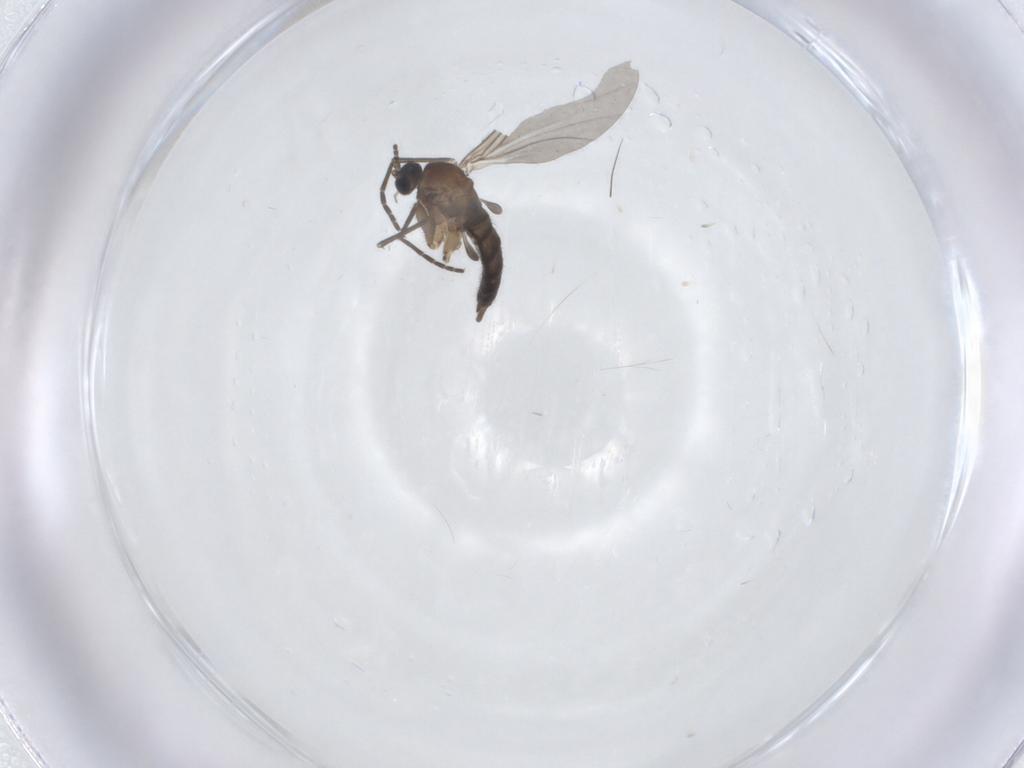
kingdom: Animalia
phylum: Arthropoda
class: Insecta
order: Diptera
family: Sciaridae
